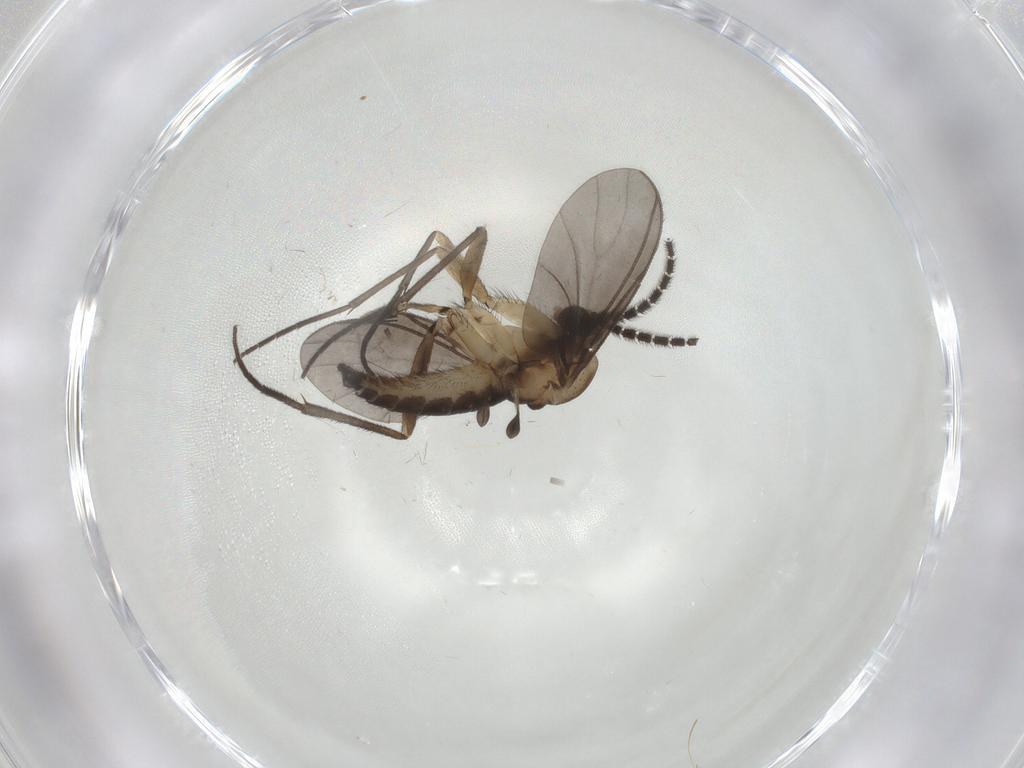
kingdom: Animalia
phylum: Arthropoda
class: Insecta
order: Diptera
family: Sciaridae
